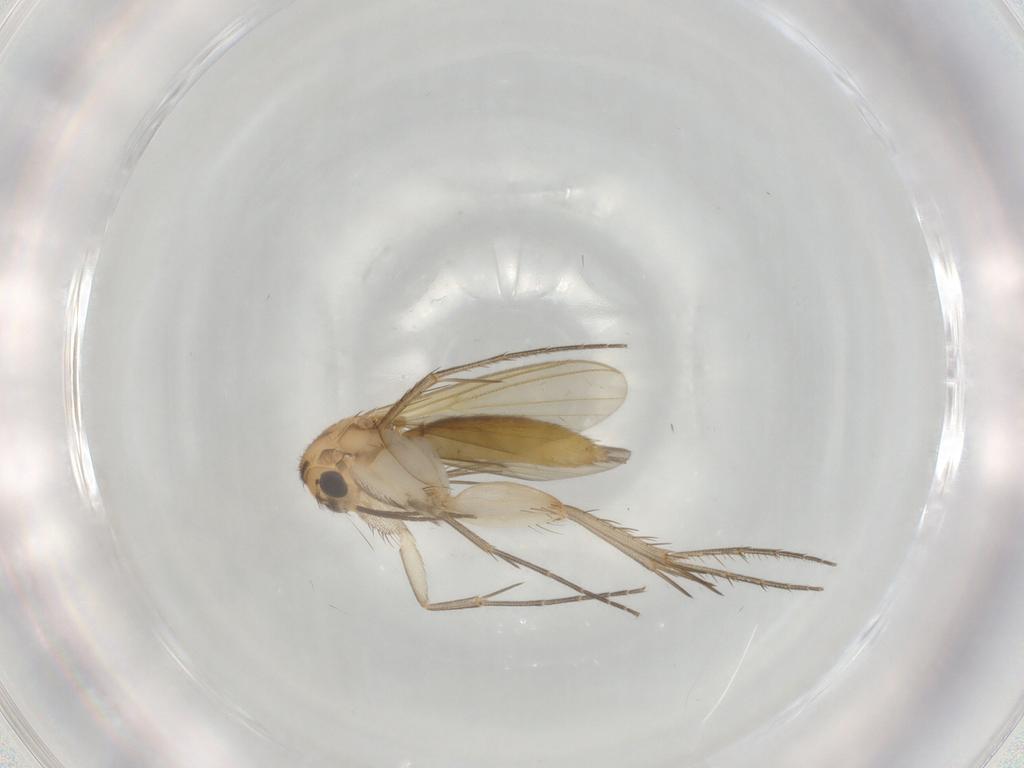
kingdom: Animalia
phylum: Arthropoda
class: Insecta
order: Diptera
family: Mycetophilidae
